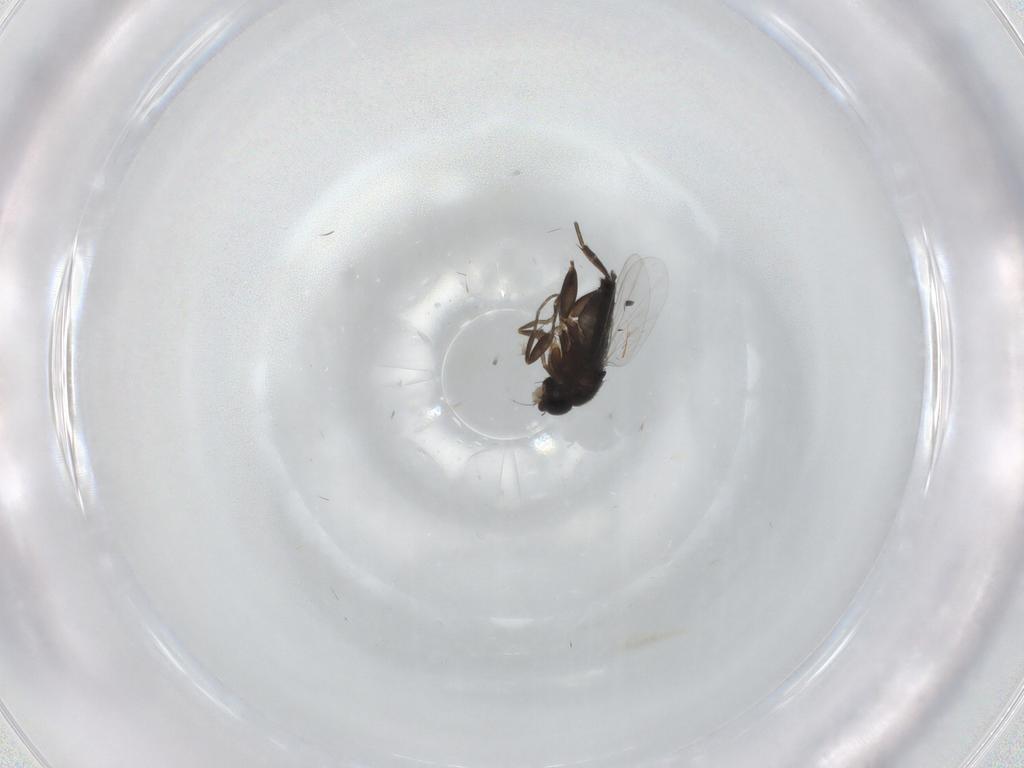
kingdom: Animalia
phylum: Arthropoda
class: Insecta
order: Diptera
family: Phoridae
